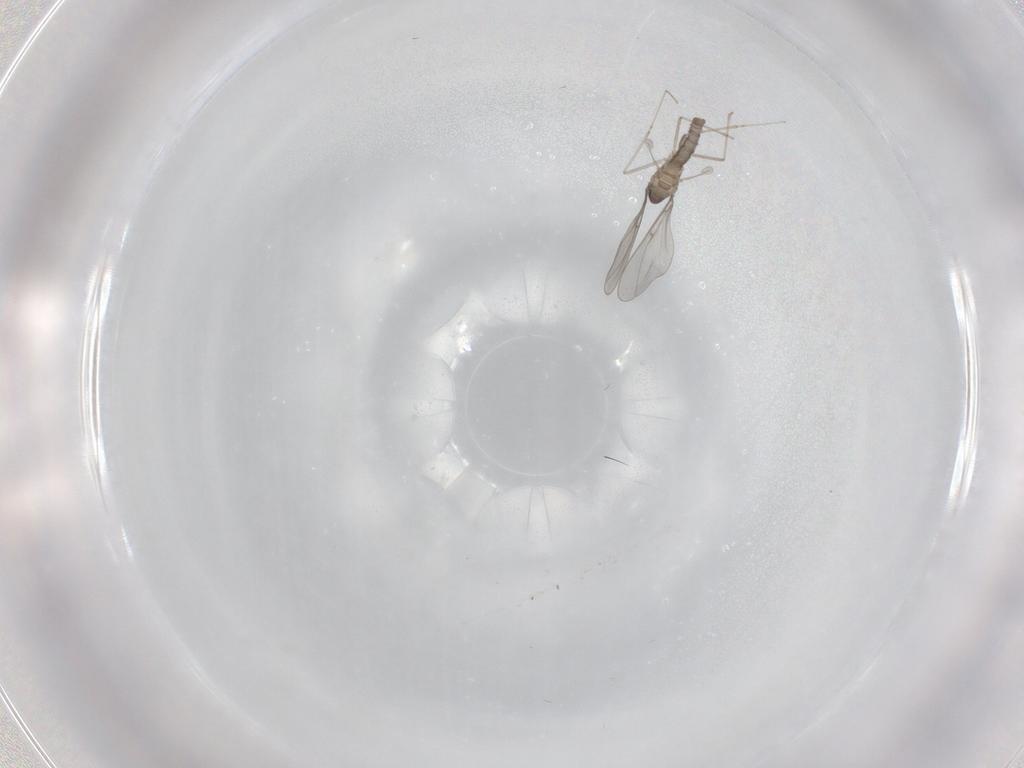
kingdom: Animalia
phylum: Arthropoda
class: Insecta
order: Diptera
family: Cecidomyiidae
